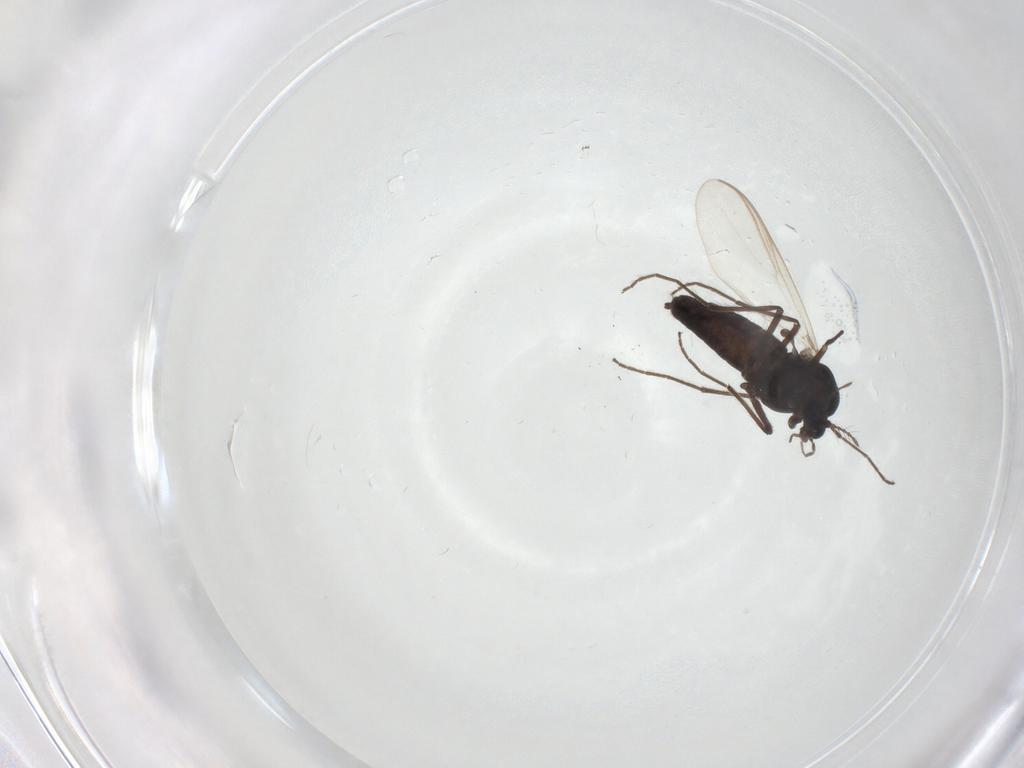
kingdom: Animalia
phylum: Arthropoda
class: Insecta
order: Diptera
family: Chironomidae
